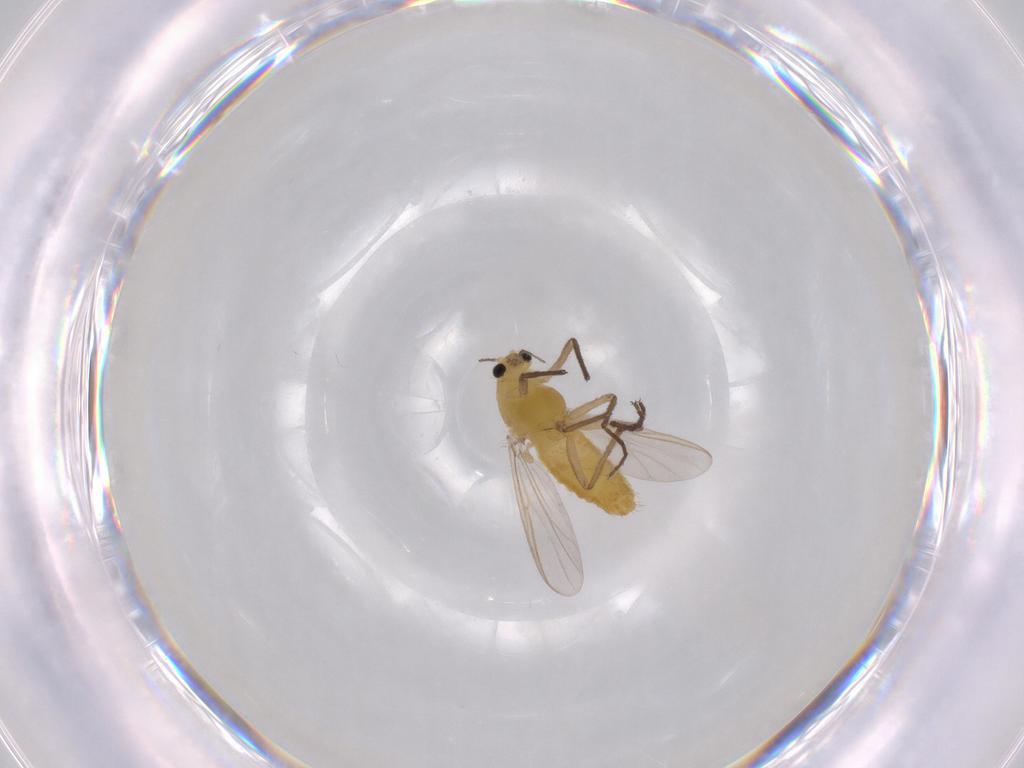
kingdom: Animalia
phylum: Arthropoda
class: Insecta
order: Diptera
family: Chironomidae
